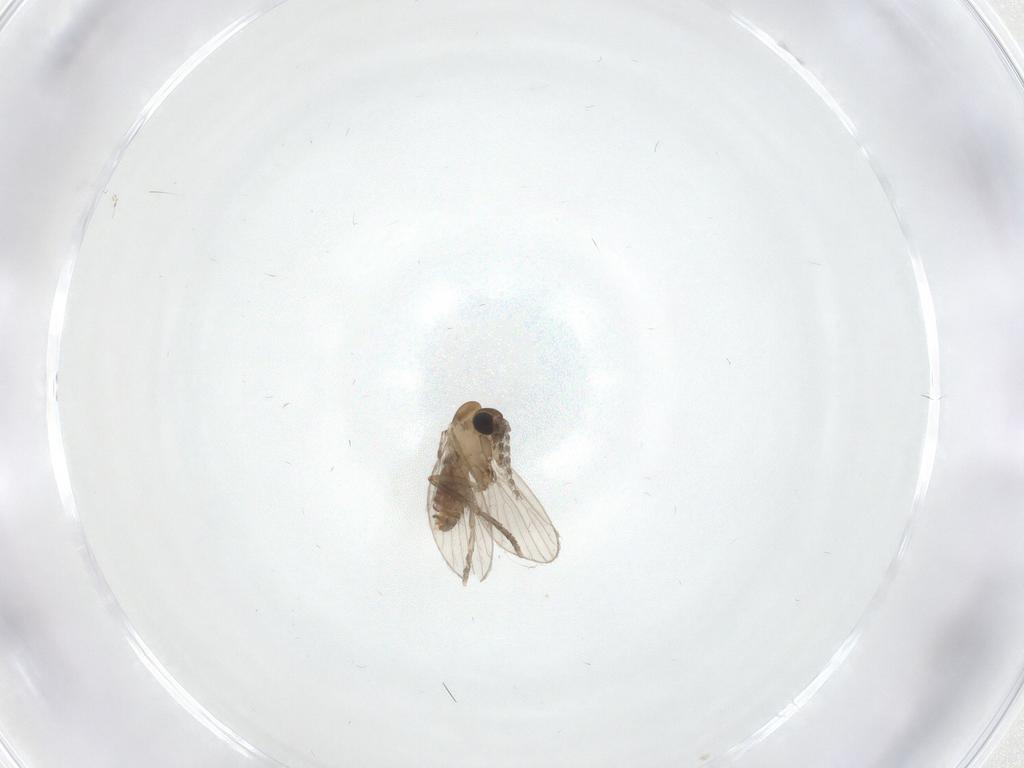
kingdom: Animalia
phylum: Arthropoda
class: Insecta
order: Diptera
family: Psychodidae
